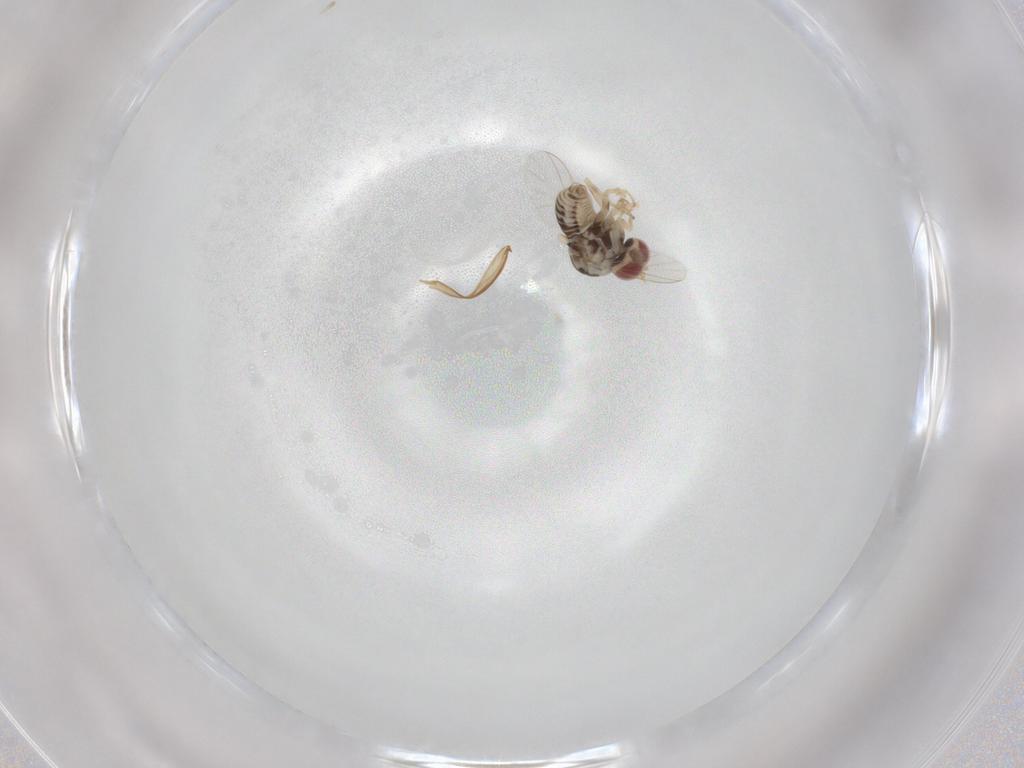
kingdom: Animalia
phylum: Arthropoda
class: Insecta
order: Diptera
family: Bombyliidae
